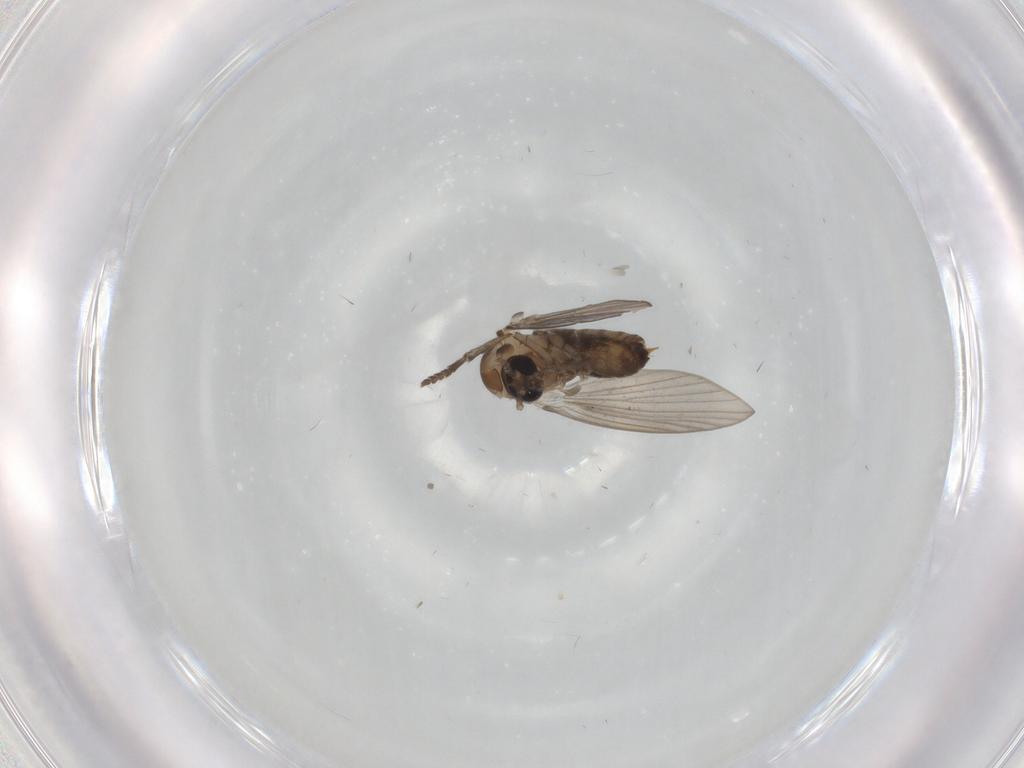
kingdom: Animalia
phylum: Arthropoda
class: Insecta
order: Diptera
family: Psychodidae
